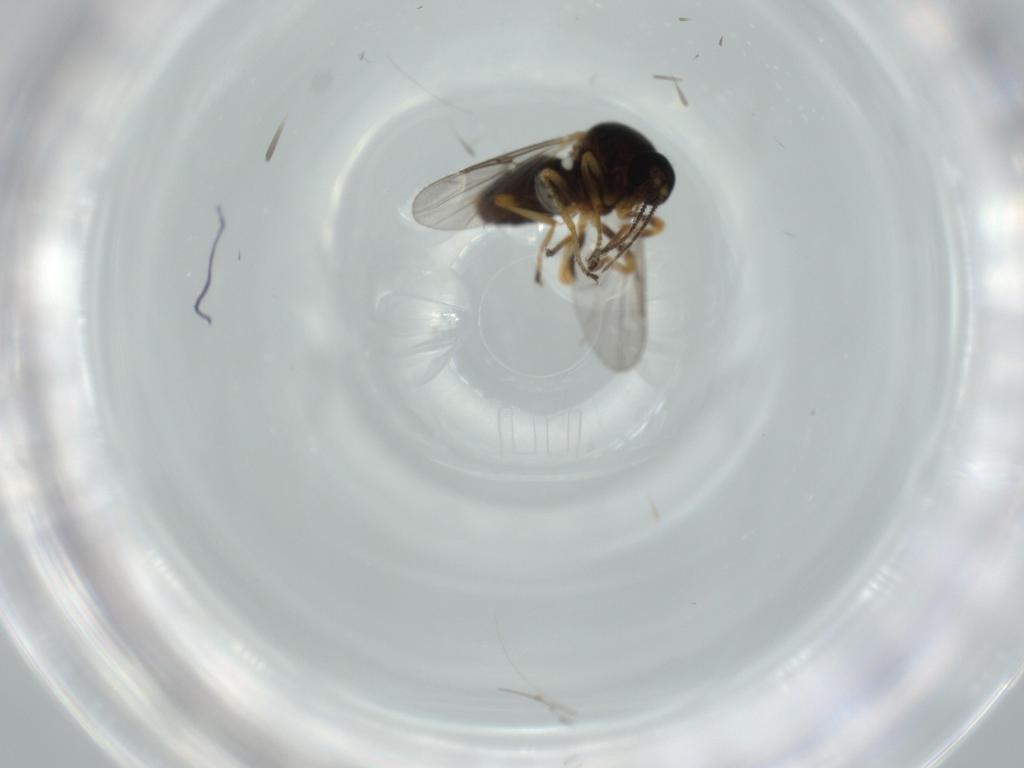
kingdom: Animalia
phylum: Arthropoda
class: Insecta
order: Diptera
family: Ceratopogonidae
